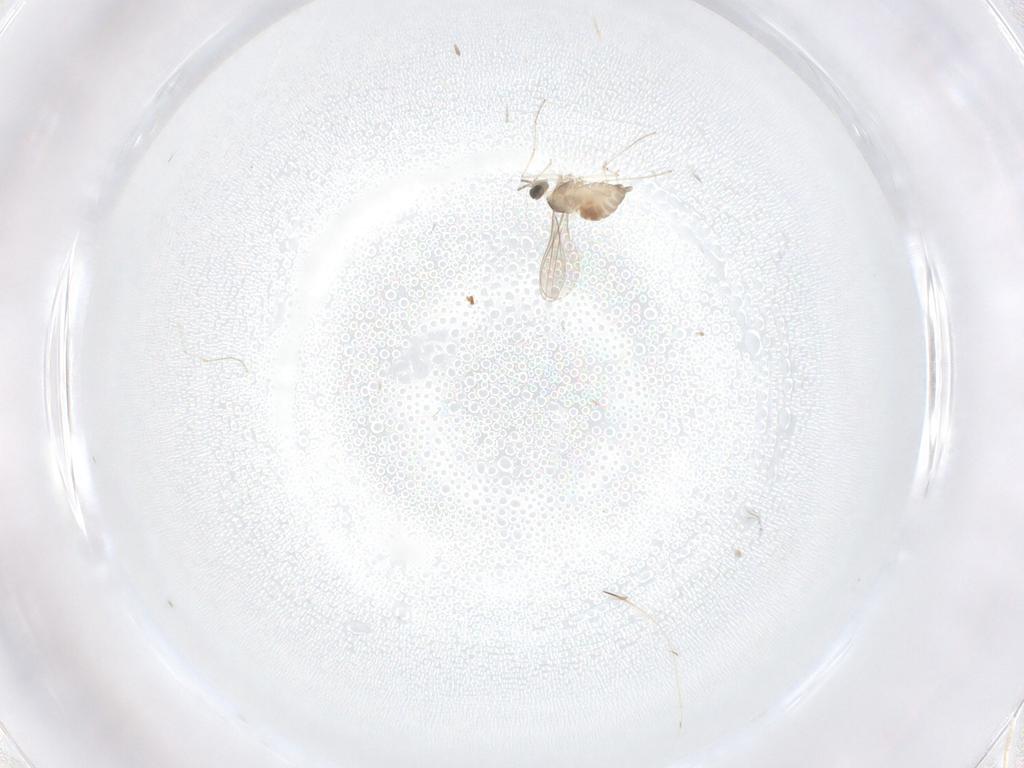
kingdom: Animalia
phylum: Arthropoda
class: Insecta
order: Diptera
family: Cecidomyiidae
